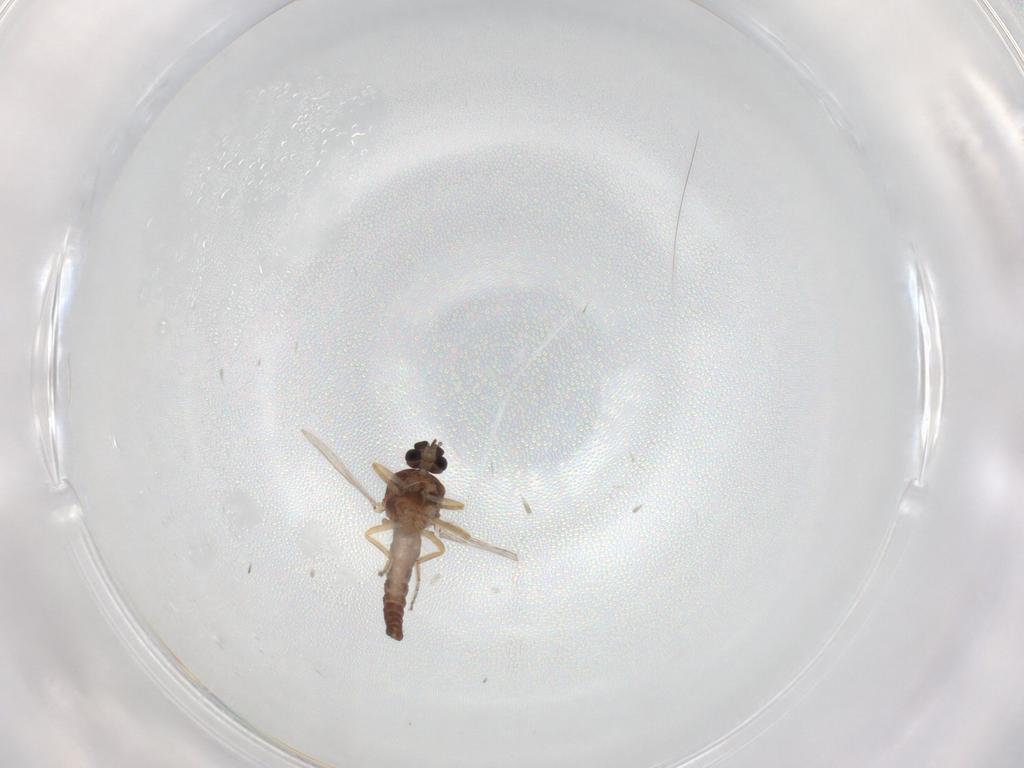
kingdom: Animalia
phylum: Arthropoda
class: Insecta
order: Diptera
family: Ceratopogonidae
